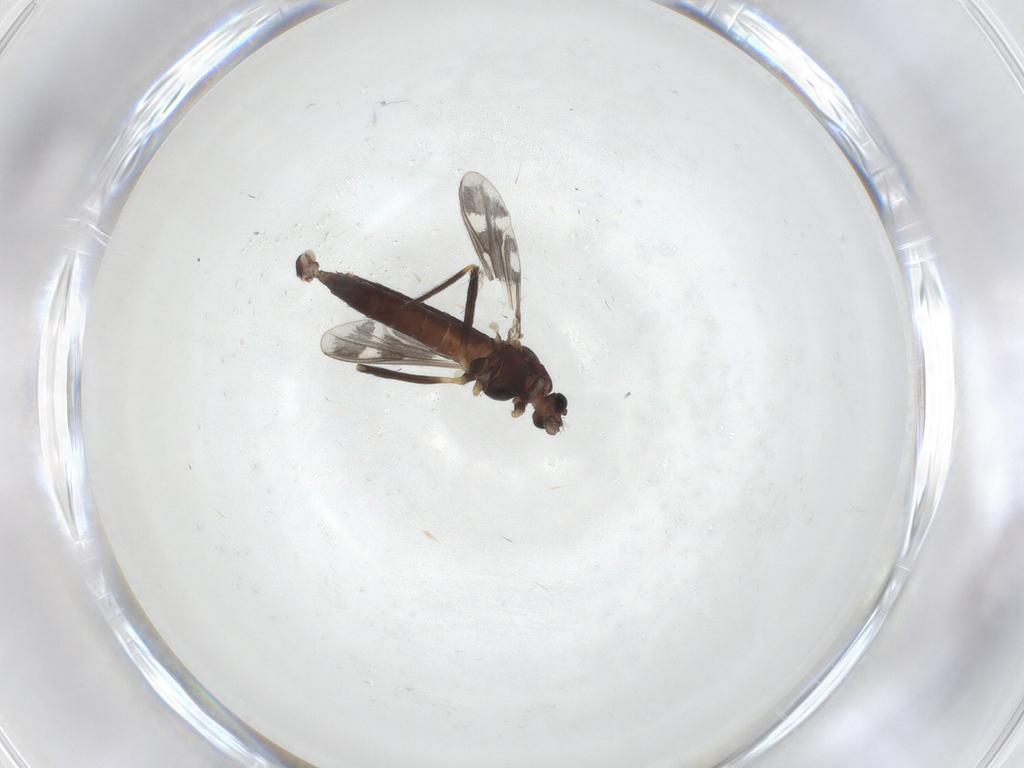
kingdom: Animalia
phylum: Arthropoda
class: Insecta
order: Diptera
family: Chironomidae
